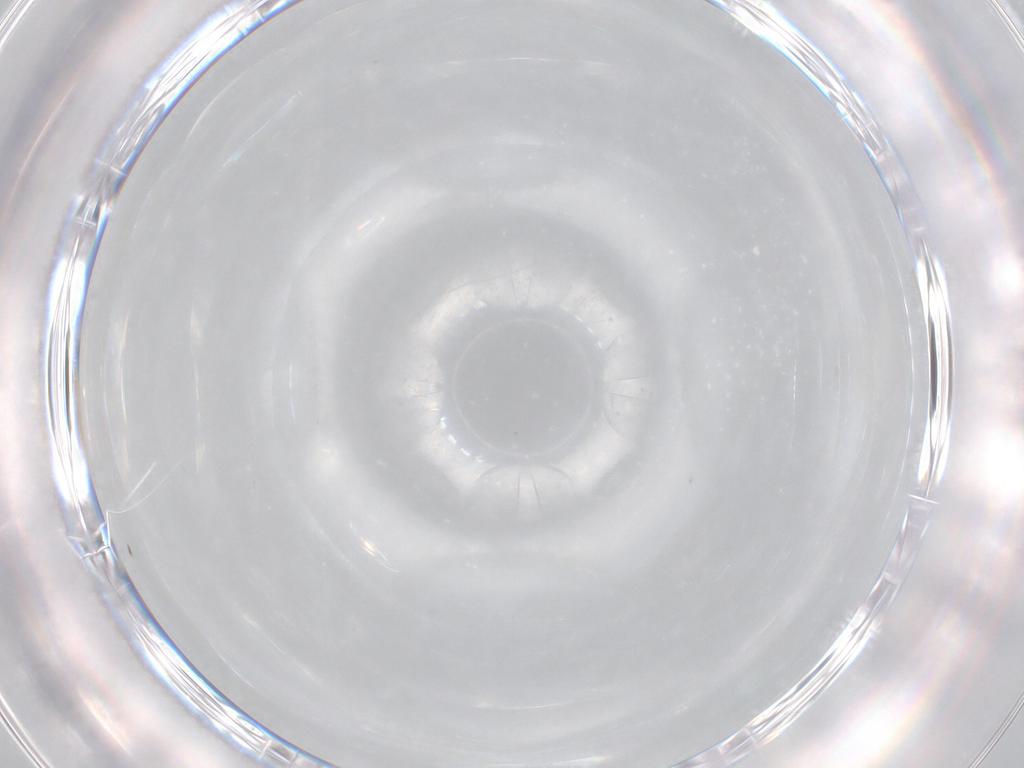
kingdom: Animalia
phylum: Arthropoda
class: Insecta
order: Hemiptera
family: Tropiduchidae
